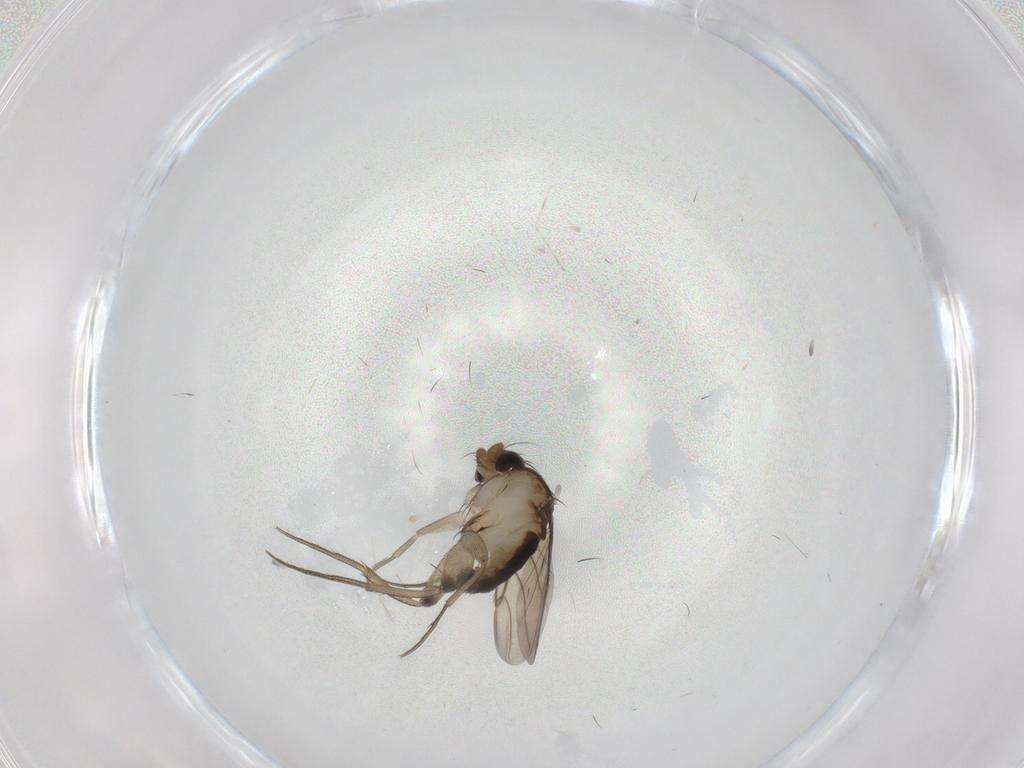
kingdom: Animalia
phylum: Arthropoda
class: Insecta
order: Diptera
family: Phoridae
